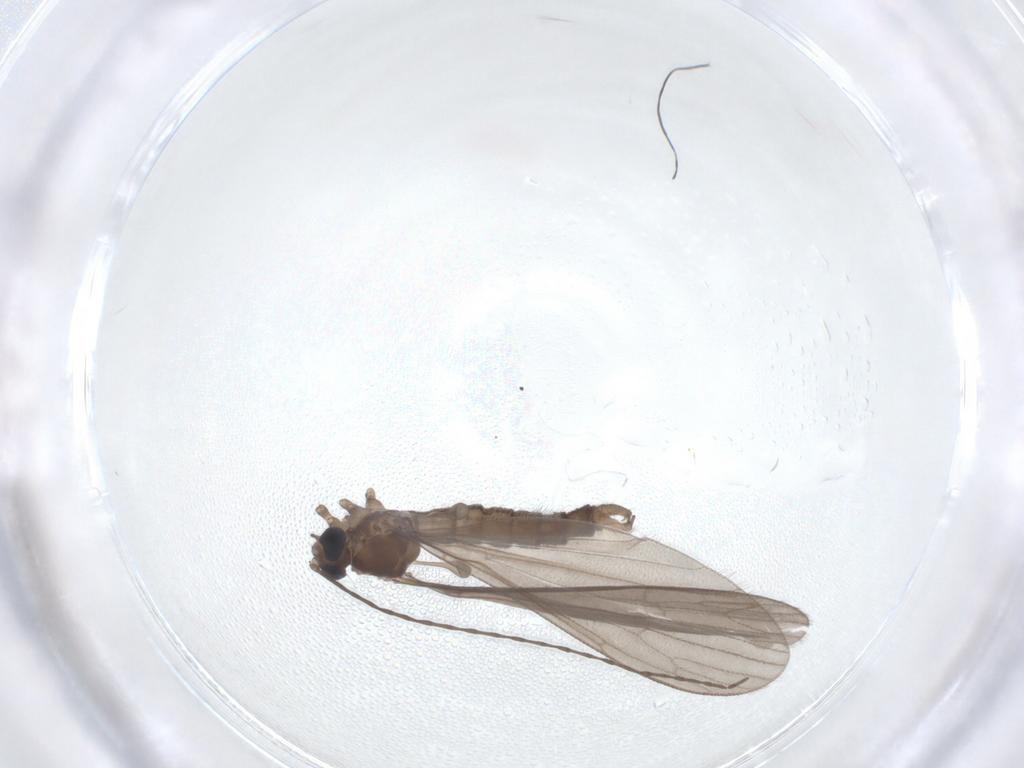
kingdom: Animalia
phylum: Arthropoda
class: Insecta
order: Diptera
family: Limoniidae
